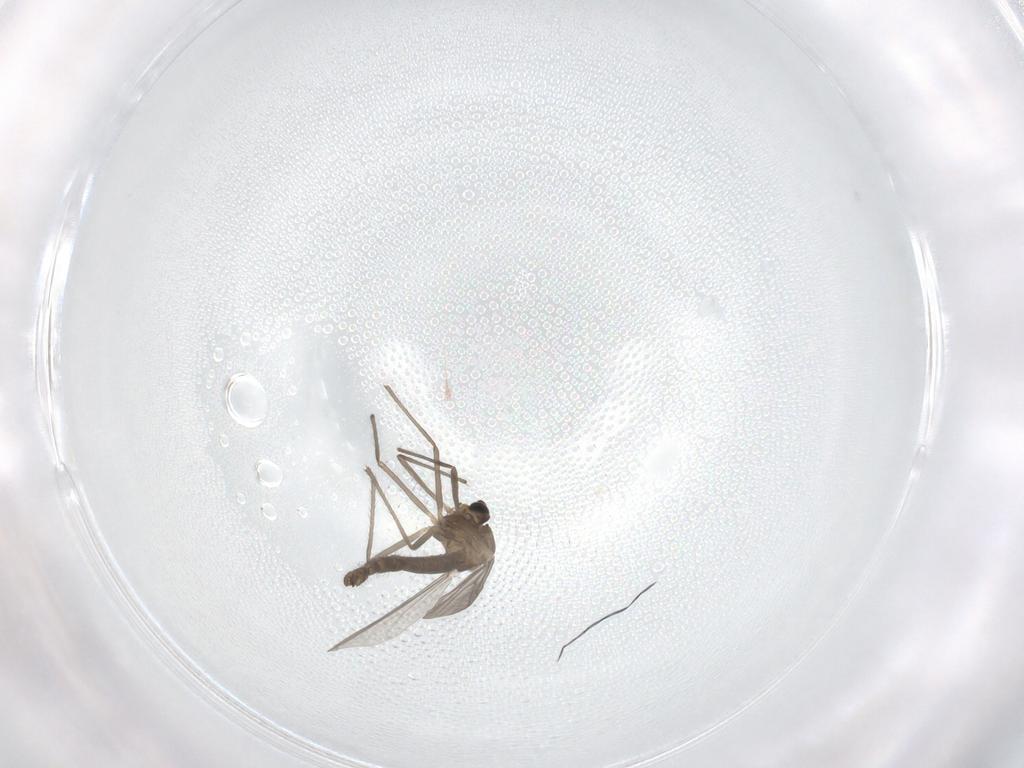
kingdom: Animalia
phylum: Arthropoda
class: Insecta
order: Diptera
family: Chironomidae
